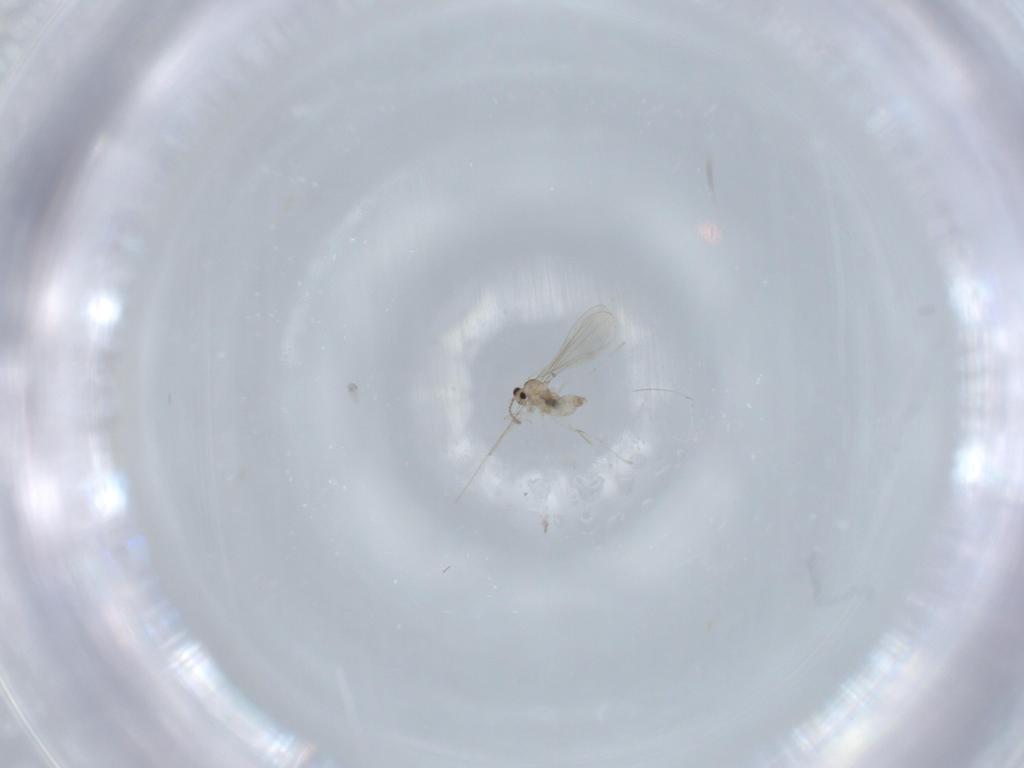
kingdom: Animalia
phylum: Arthropoda
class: Insecta
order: Diptera
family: Cecidomyiidae
